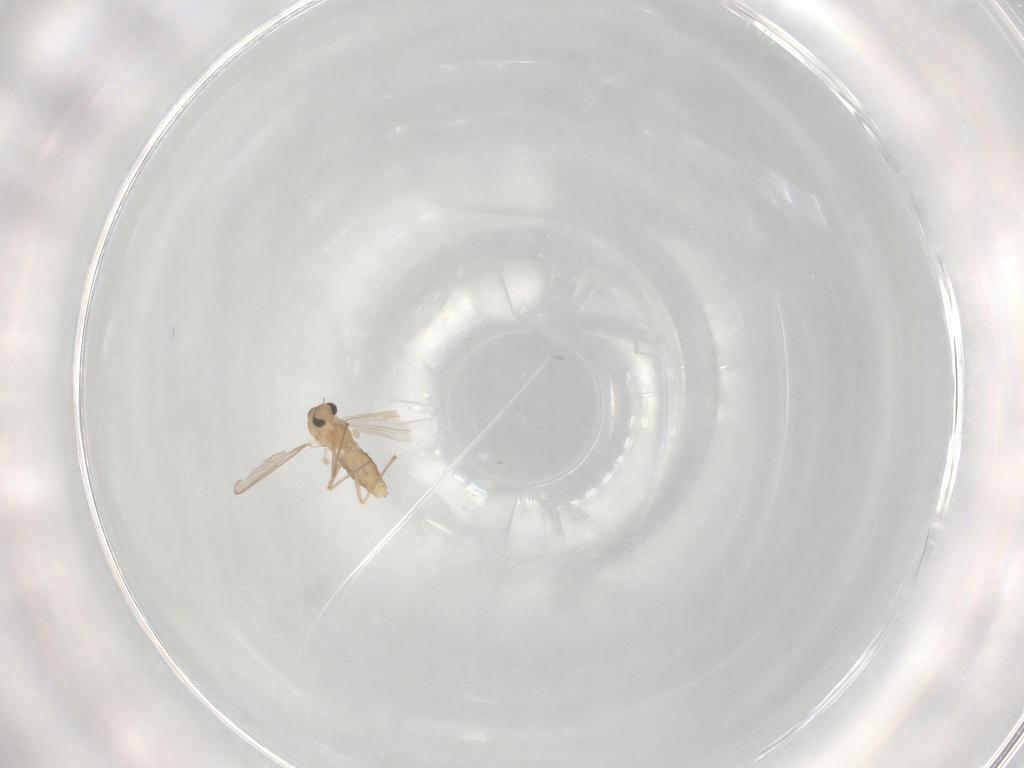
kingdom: Animalia
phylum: Arthropoda
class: Insecta
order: Diptera
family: Chironomidae
